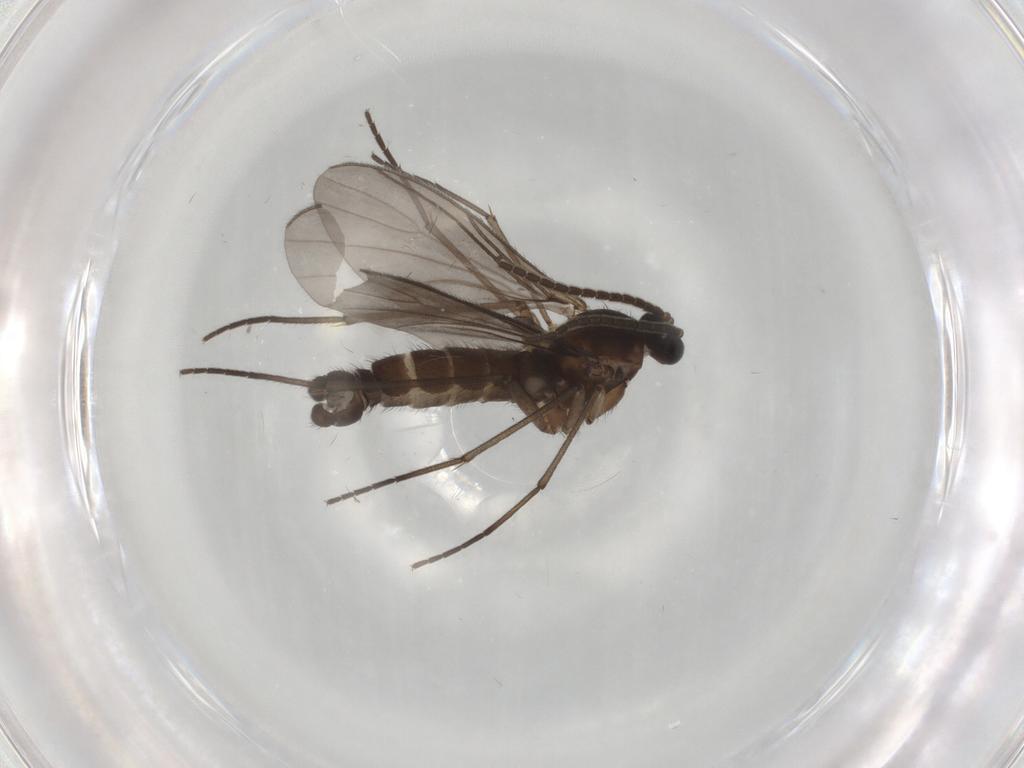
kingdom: Animalia
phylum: Arthropoda
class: Insecta
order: Diptera
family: Sciaridae
